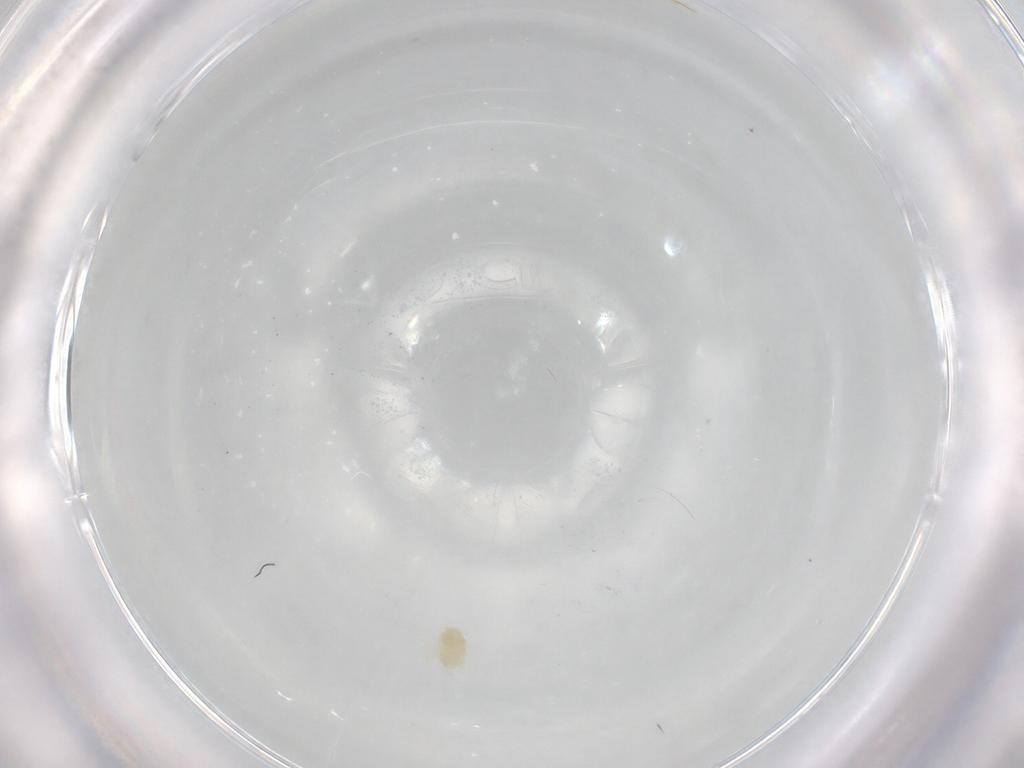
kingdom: Animalia
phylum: Arthropoda
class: Arachnida
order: Trombidiformes
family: Eupodidae
